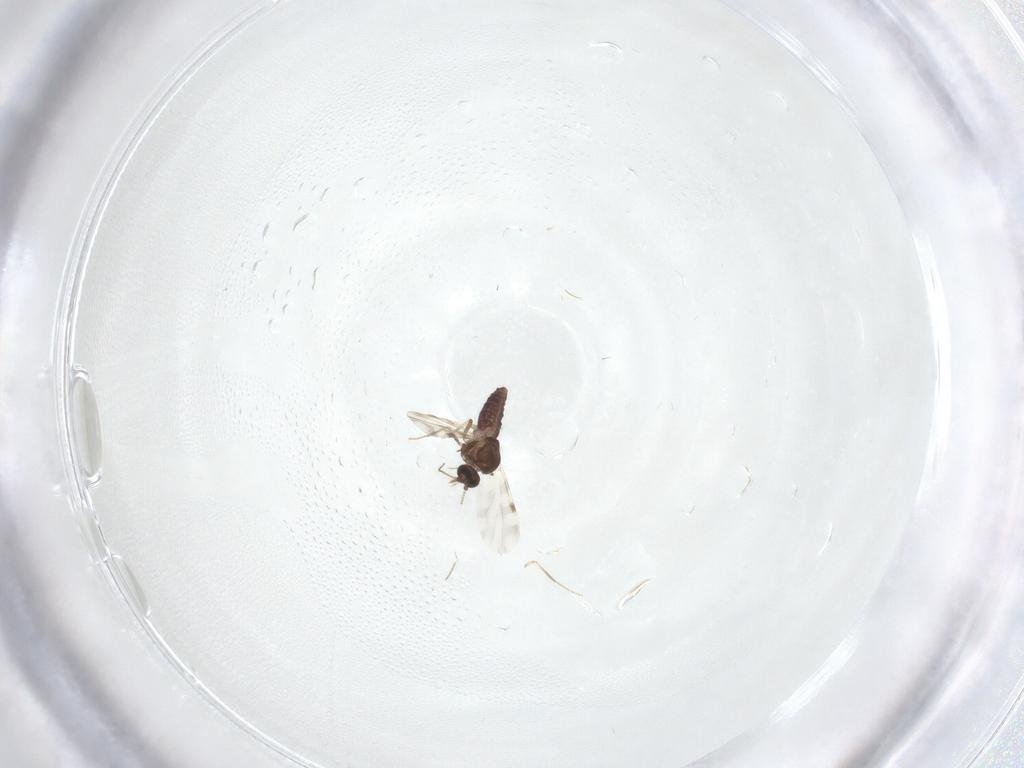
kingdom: Animalia
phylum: Arthropoda
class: Insecta
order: Diptera
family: Ceratopogonidae
